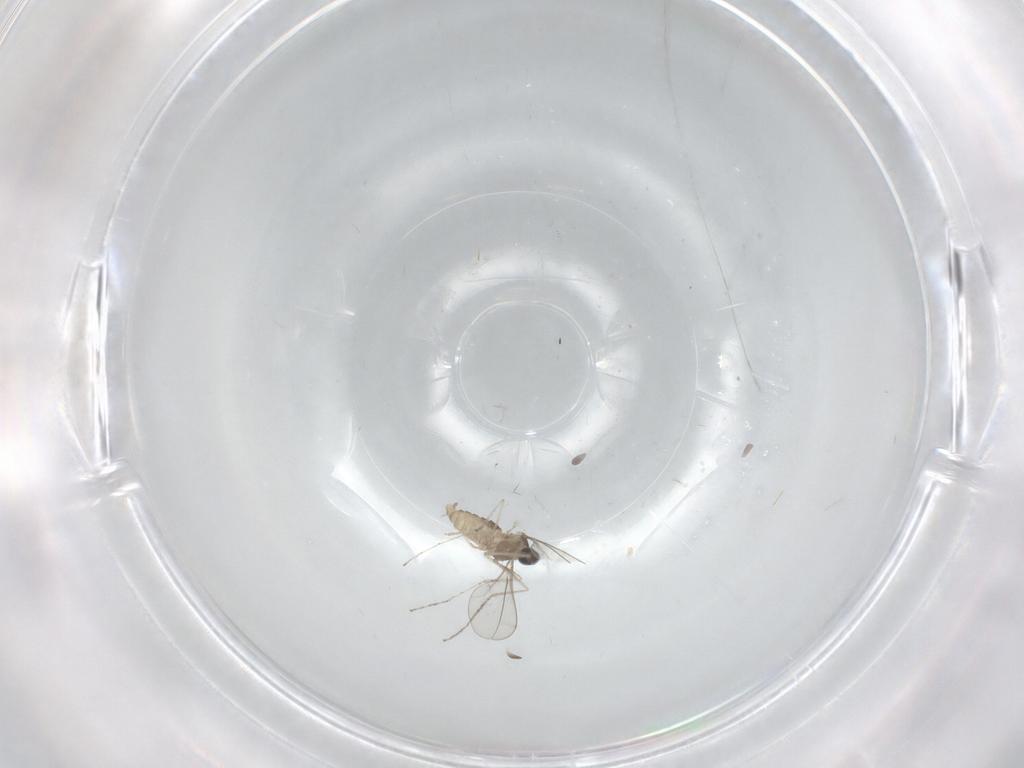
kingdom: Animalia
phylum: Arthropoda
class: Insecta
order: Diptera
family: Cecidomyiidae
